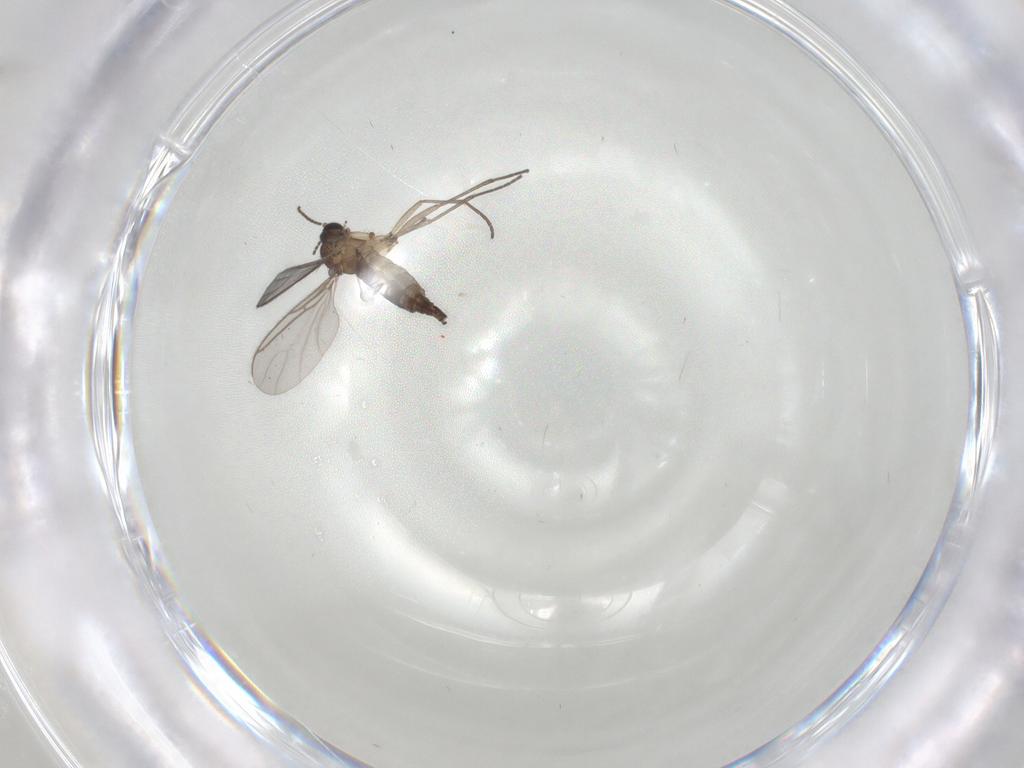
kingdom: Animalia
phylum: Arthropoda
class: Insecta
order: Diptera
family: Sciaridae
